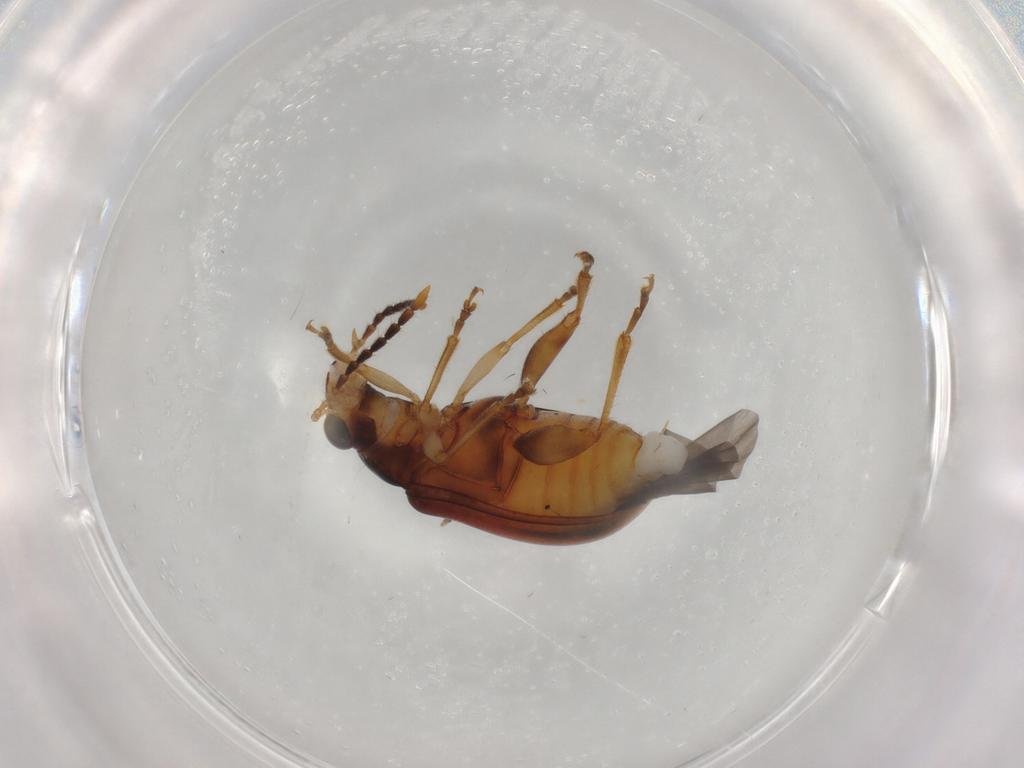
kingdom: Animalia
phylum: Arthropoda
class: Insecta
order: Coleoptera
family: Chrysomelidae
